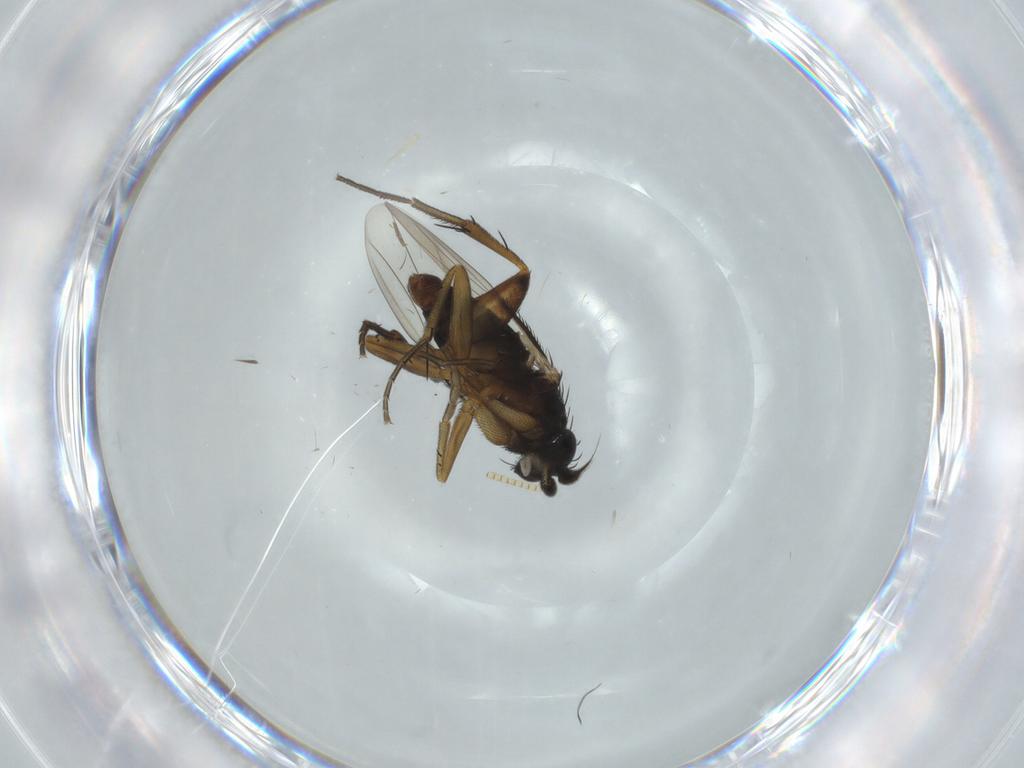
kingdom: Animalia
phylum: Arthropoda
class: Insecta
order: Diptera
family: Phoridae
